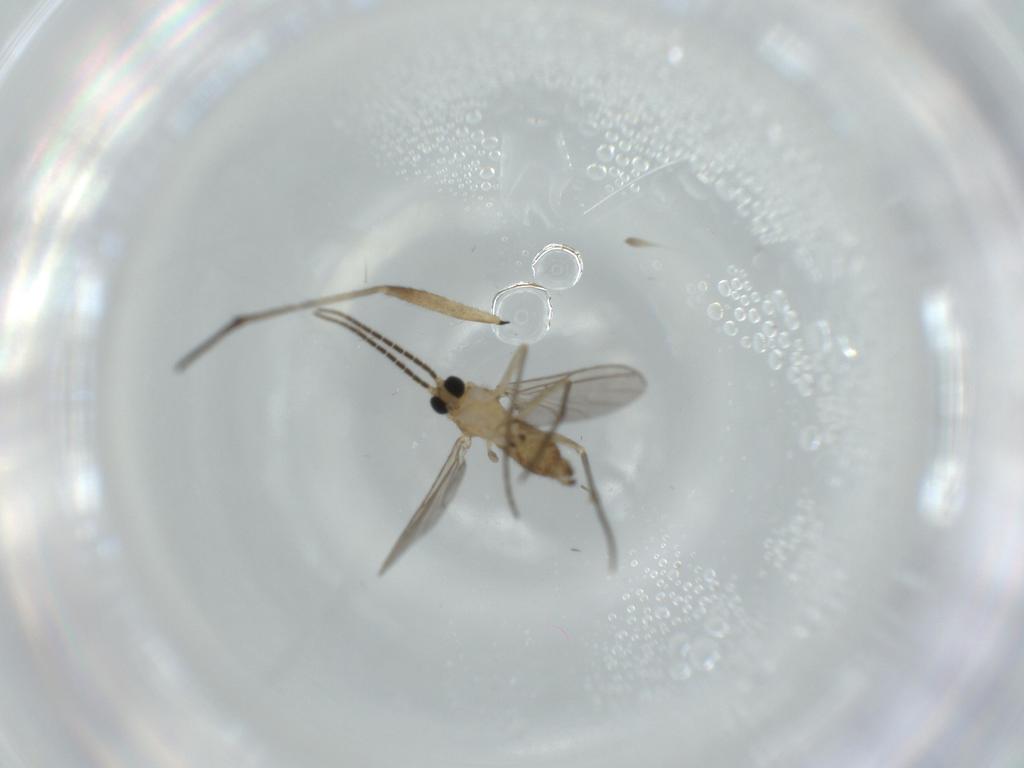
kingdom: Animalia
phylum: Arthropoda
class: Insecta
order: Diptera
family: Sciaridae
